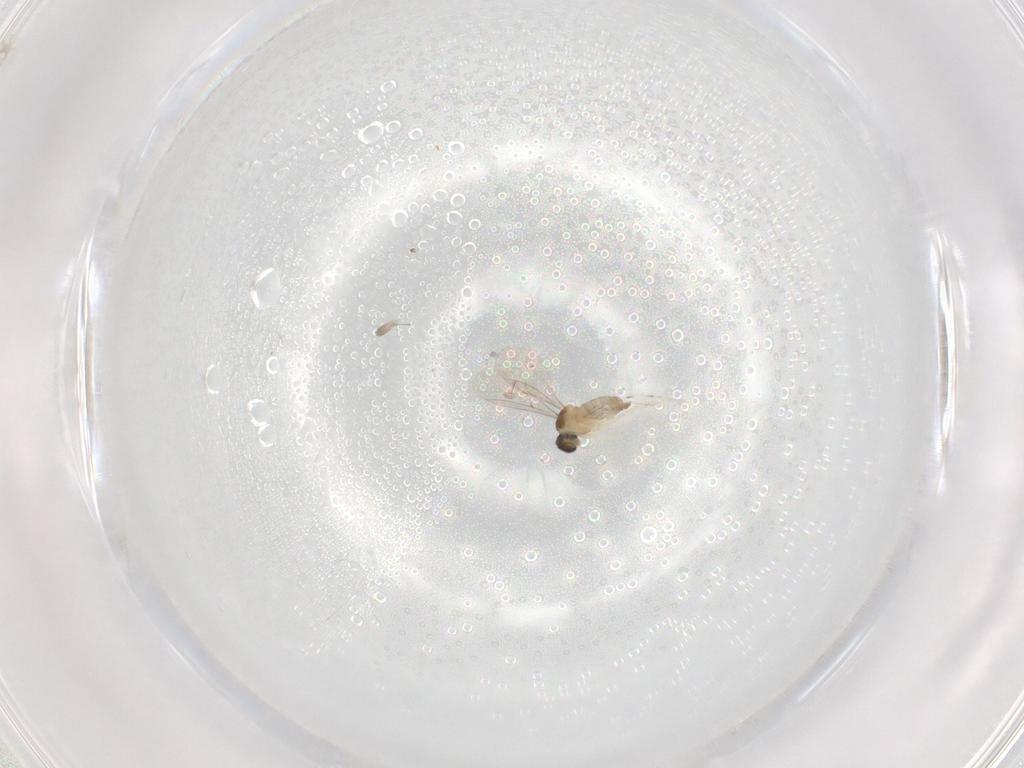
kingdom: Animalia
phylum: Arthropoda
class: Insecta
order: Diptera
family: Cecidomyiidae
